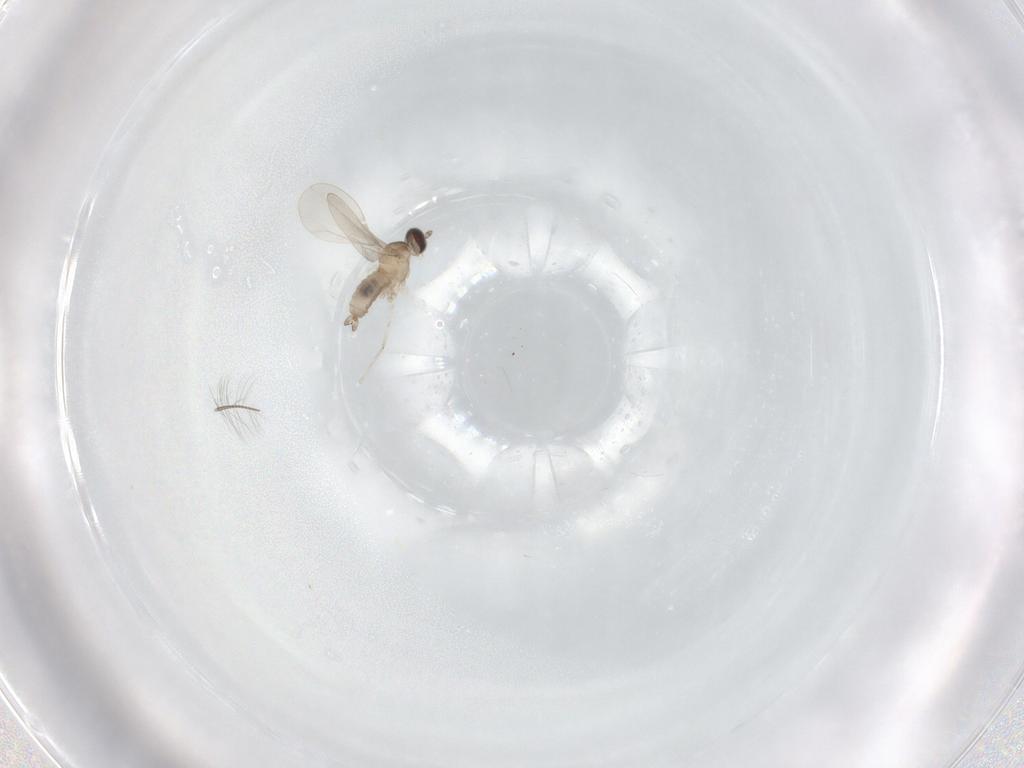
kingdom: Animalia
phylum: Arthropoda
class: Insecta
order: Diptera
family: Cecidomyiidae
